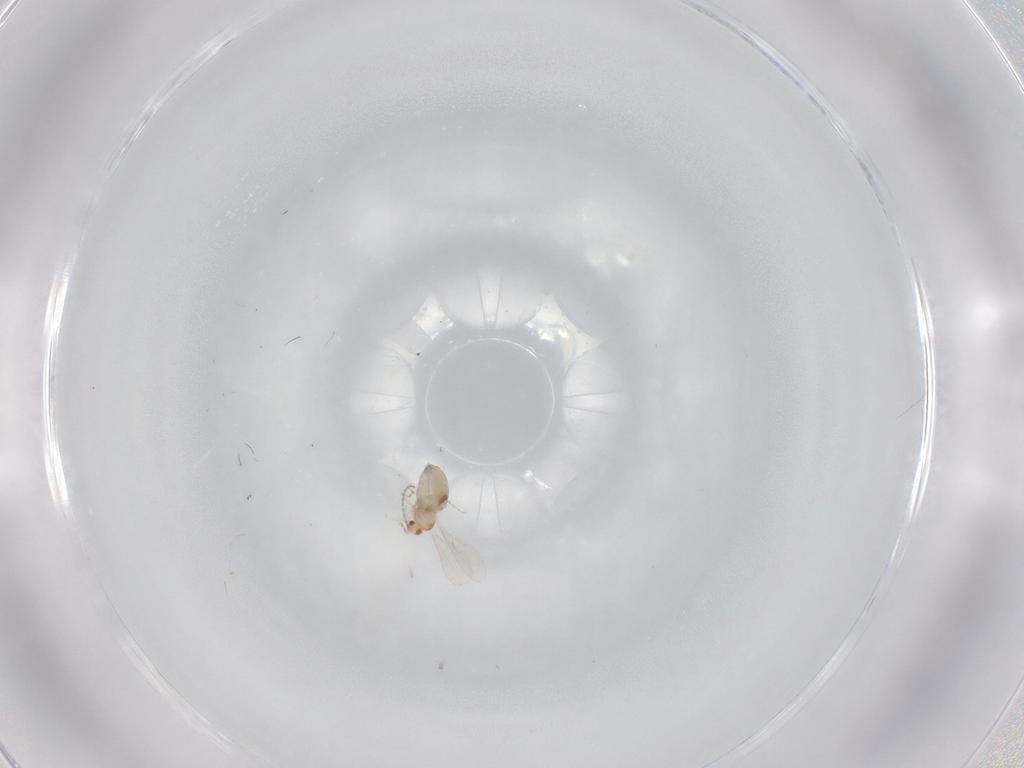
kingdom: Animalia
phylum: Arthropoda
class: Insecta
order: Diptera
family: Cecidomyiidae
